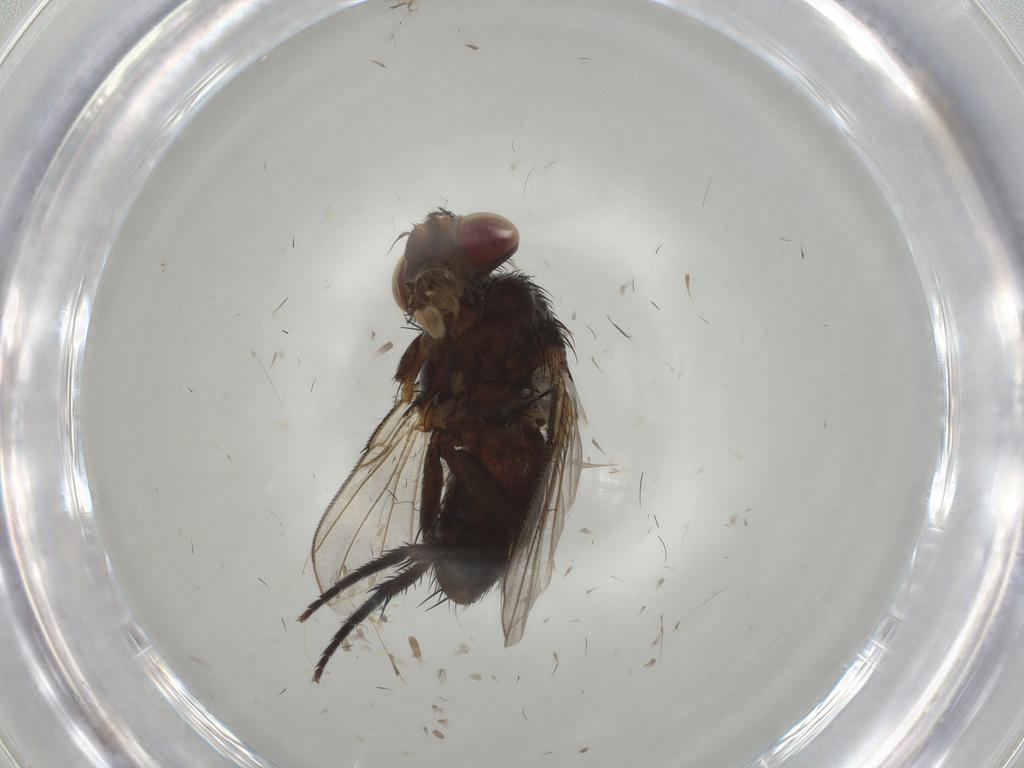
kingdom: Animalia
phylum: Arthropoda
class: Insecta
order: Diptera
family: Tachinidae
